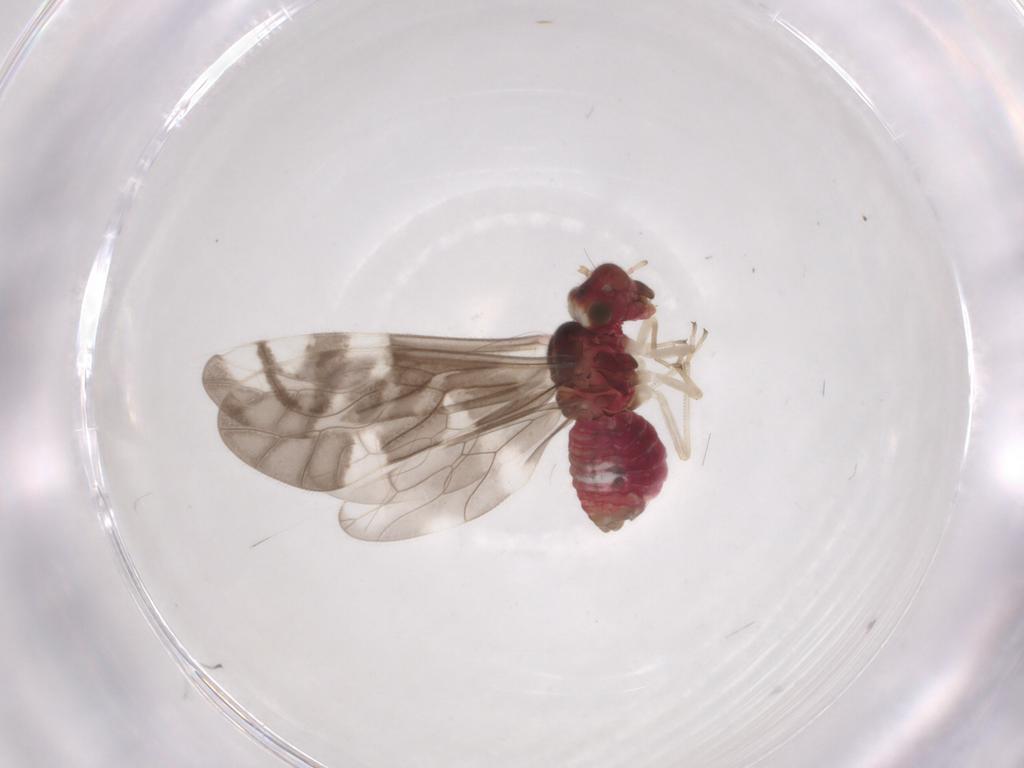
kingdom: Animalia
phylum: Arthropoda
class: Insecta
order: Psocodea
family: Caeciliusidae
